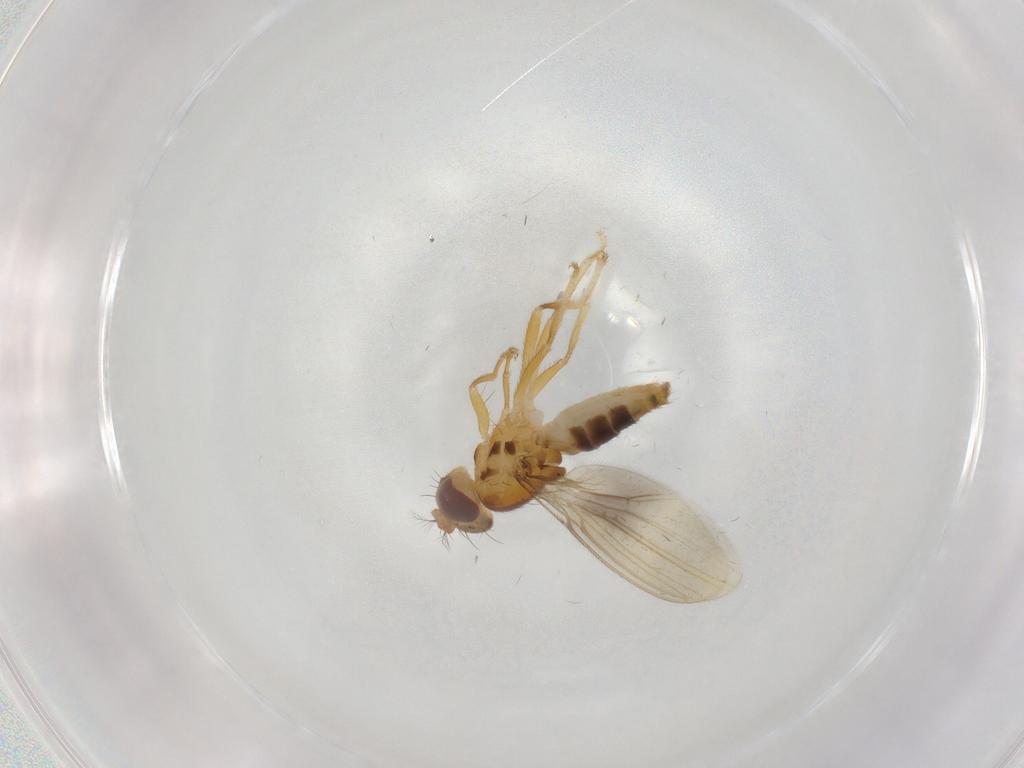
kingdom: Animalia
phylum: Arthropoda
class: Insecta
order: Diptera
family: Periscelididae
